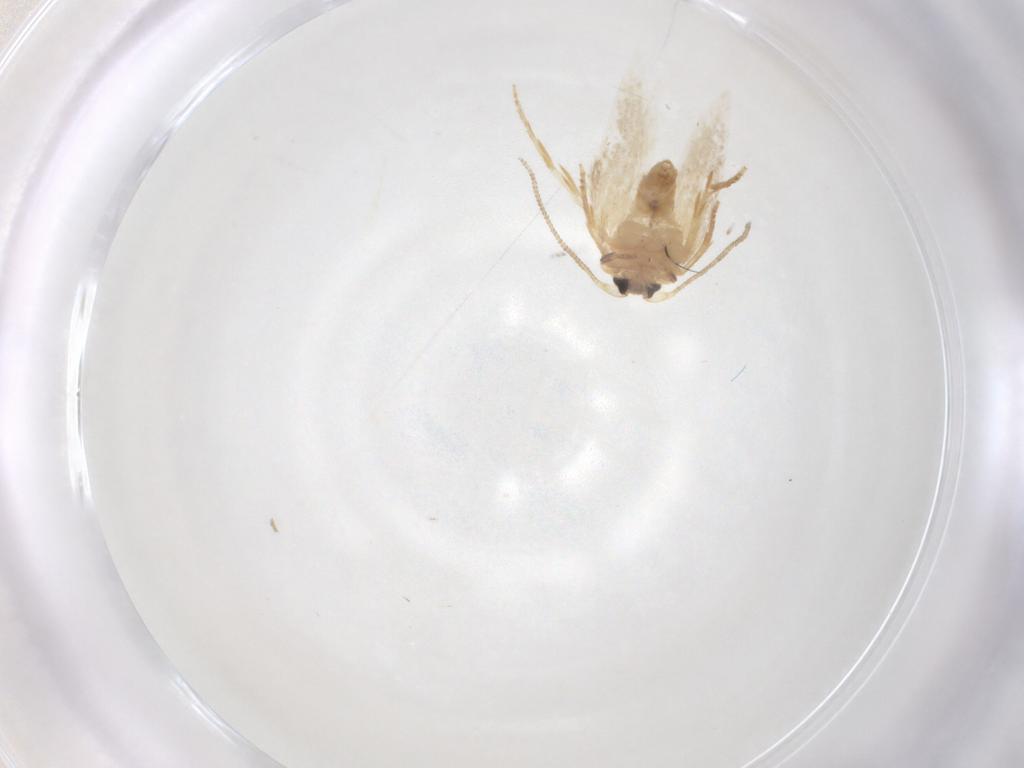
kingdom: Animalia
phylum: Arthropoda
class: Insecta
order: Lepidoptera
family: Nepticulidae
